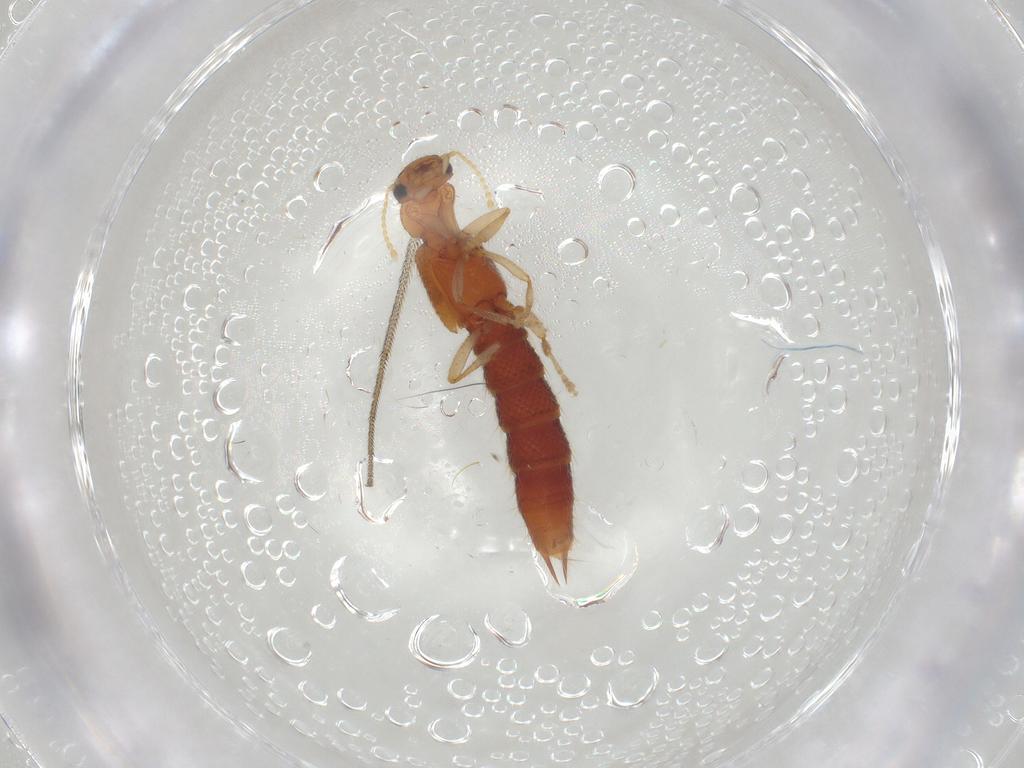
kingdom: Animalia
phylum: Arthropoda
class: Insecta
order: Coleoptera
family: Staphylinidae
